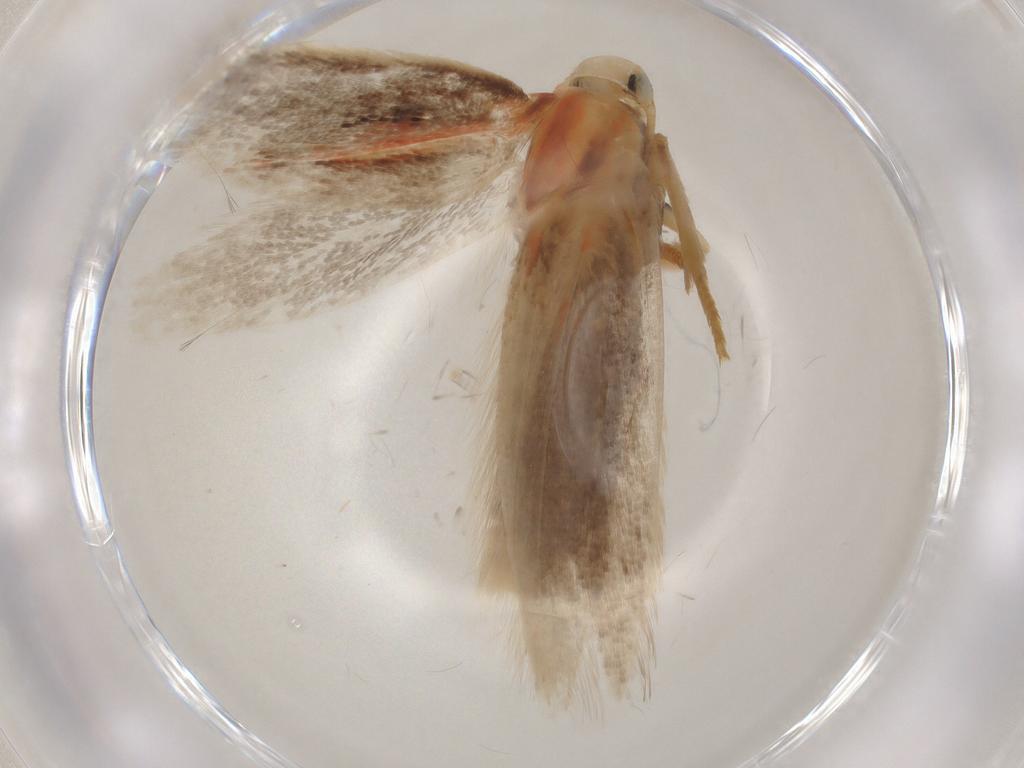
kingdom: Animalia
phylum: Arthropoda
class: Insecta
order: Lepidoptera
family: Geometridae
